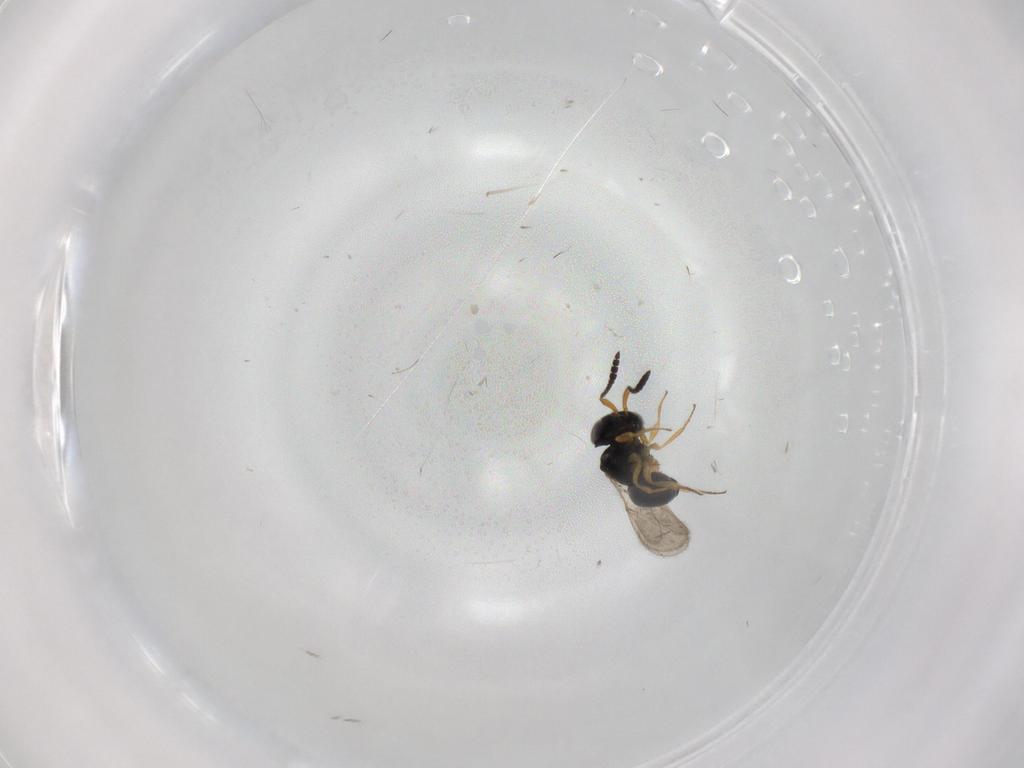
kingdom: Animalia
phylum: Arthropoda
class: Insecta
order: Hymenoptera
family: Scelionidae
